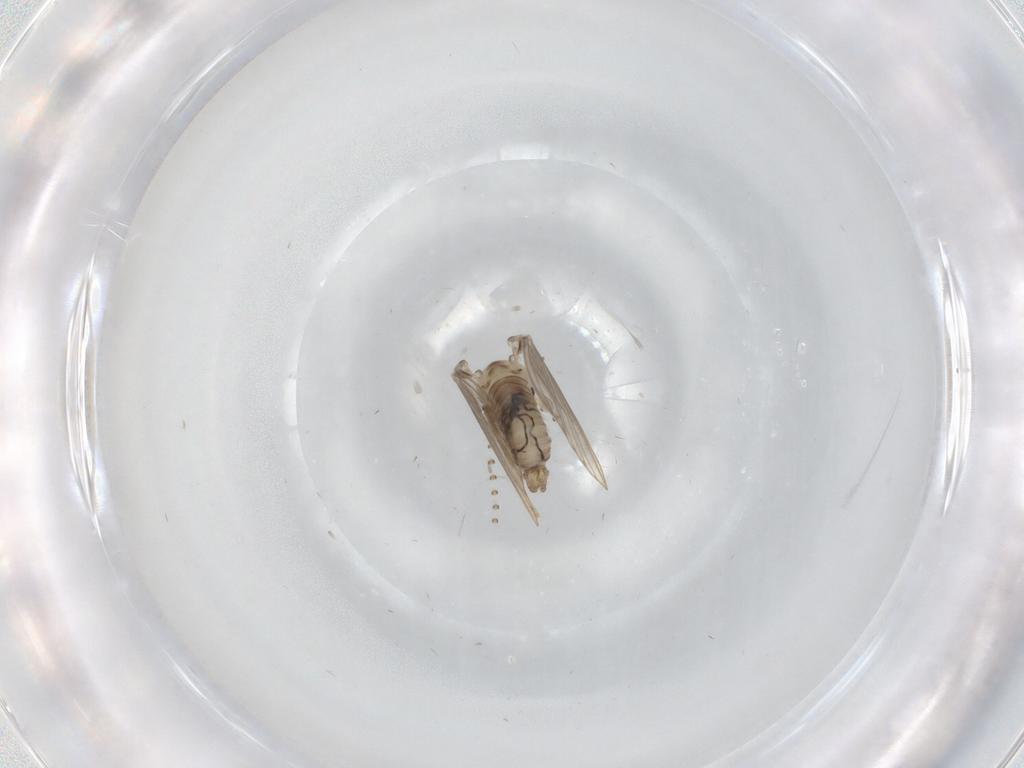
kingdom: Animalia
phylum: Arthropoda
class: Insecta
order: Diptera
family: Psychodidae
